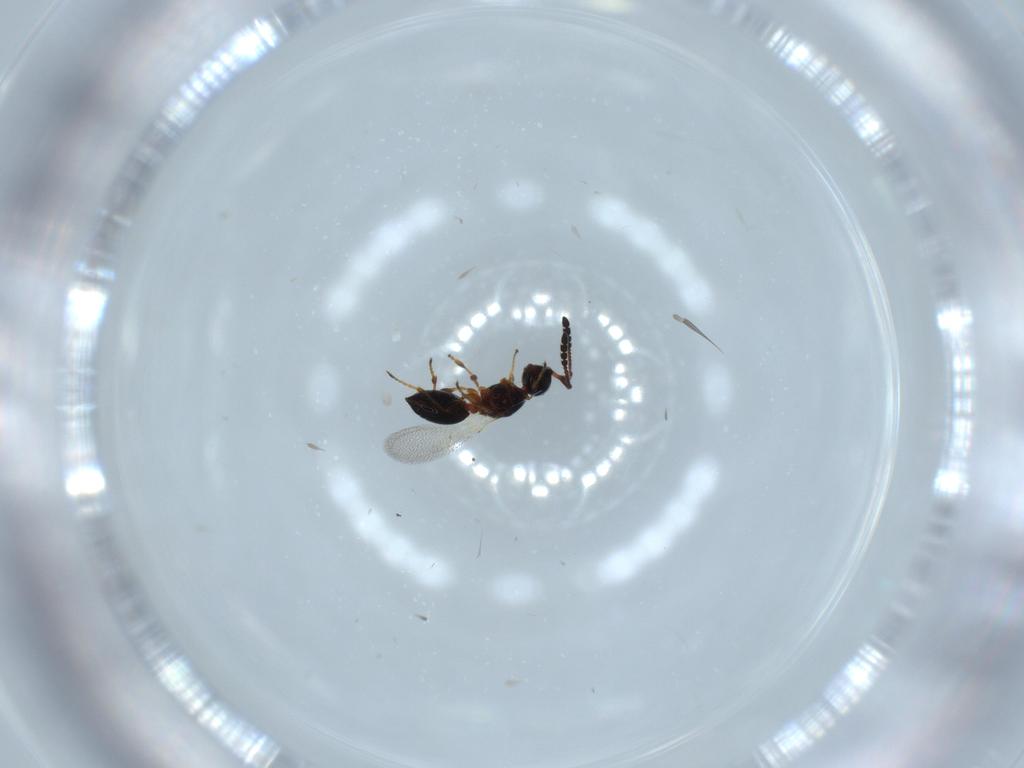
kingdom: Animalia
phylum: Arthropoda
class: Insecta
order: Hymenoptera
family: Diapriidae
